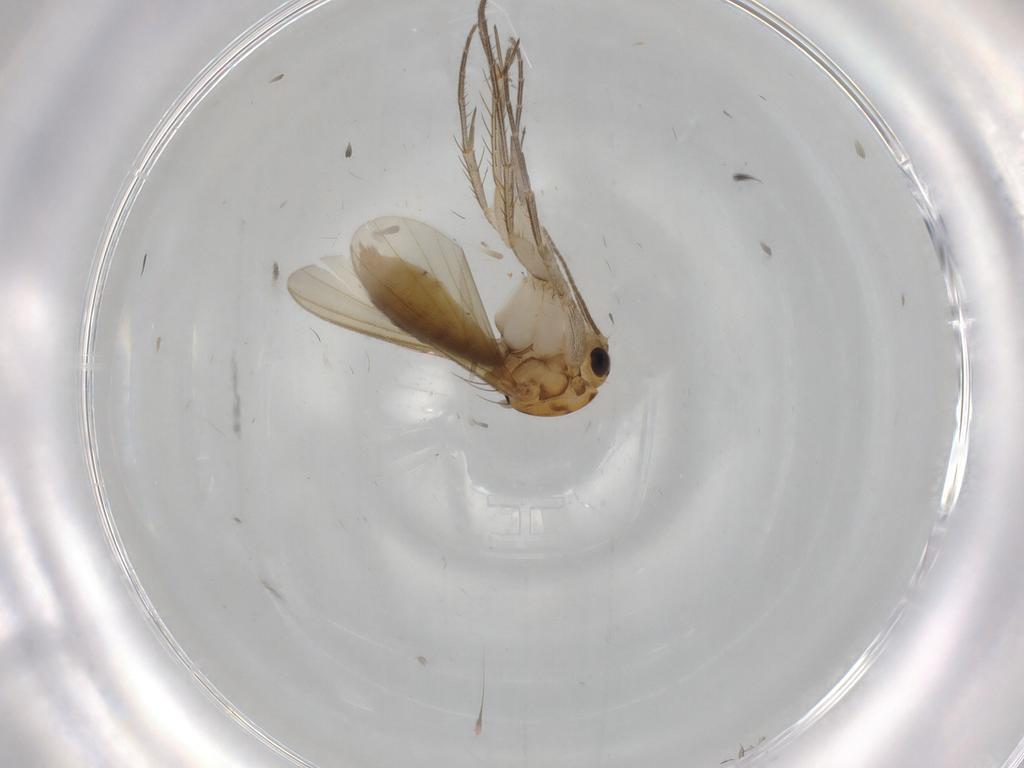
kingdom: Animalia
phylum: Arthropoda
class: Insecta
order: Diptera
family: Mycetophilidae
